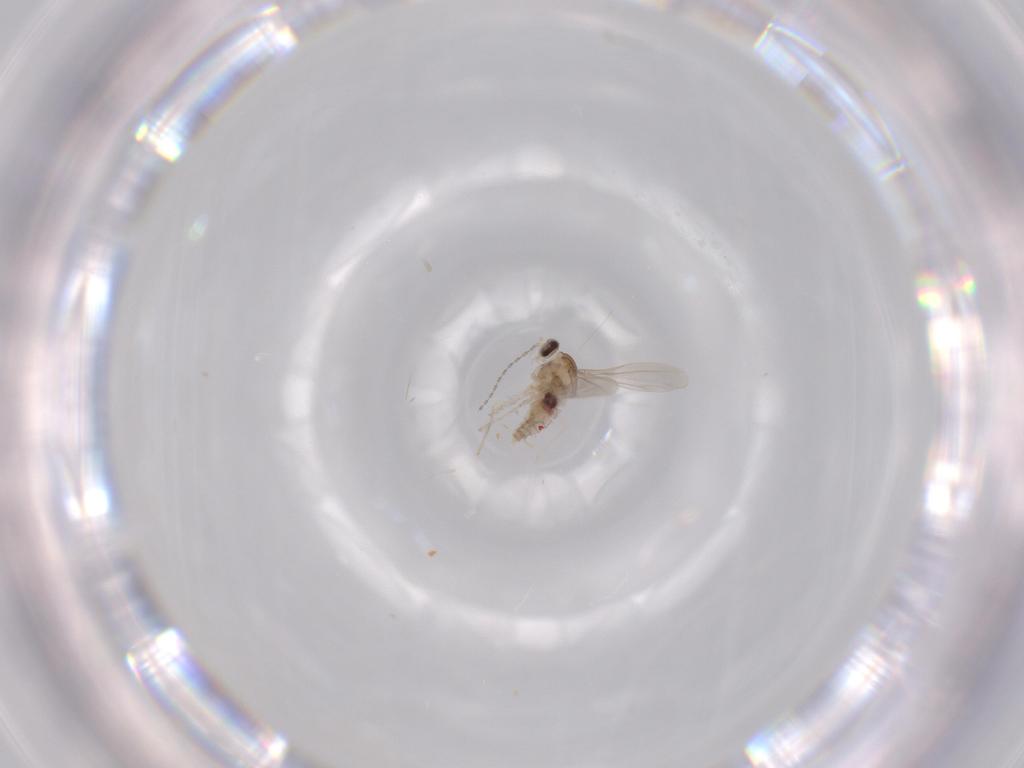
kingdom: Animalia
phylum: Arthropoda
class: Insecta
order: Diptera
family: Cecidomyiidae
